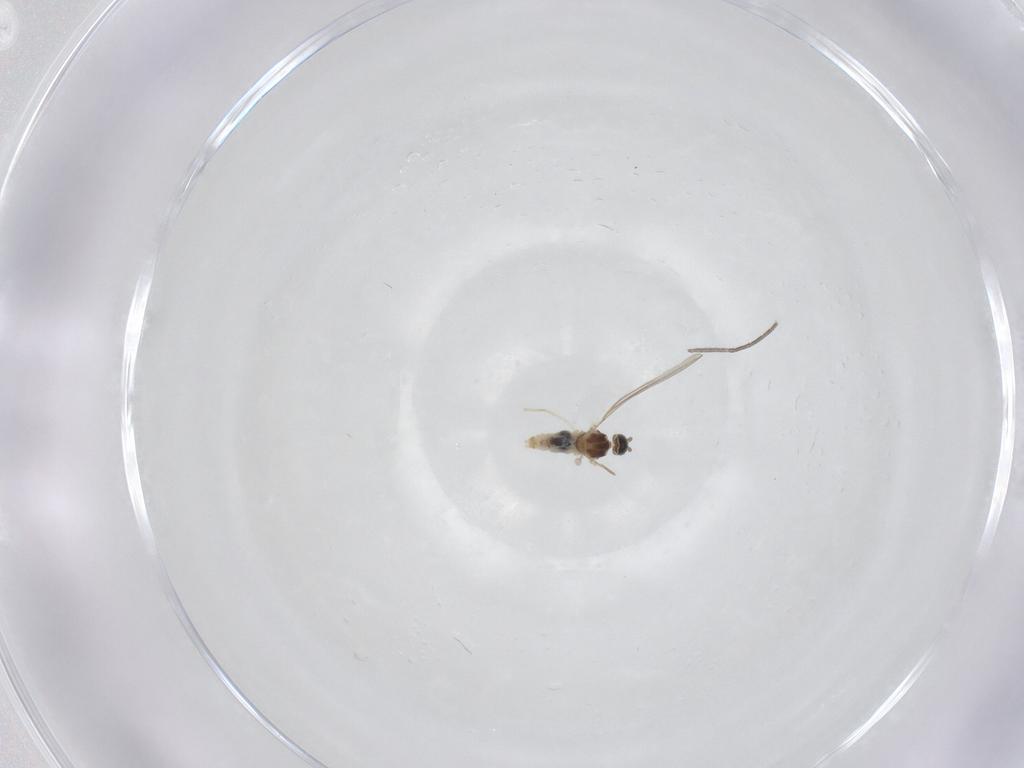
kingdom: Animalia
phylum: Arthropoda
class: Insecta
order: Diptera
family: Cecidomyiidae
